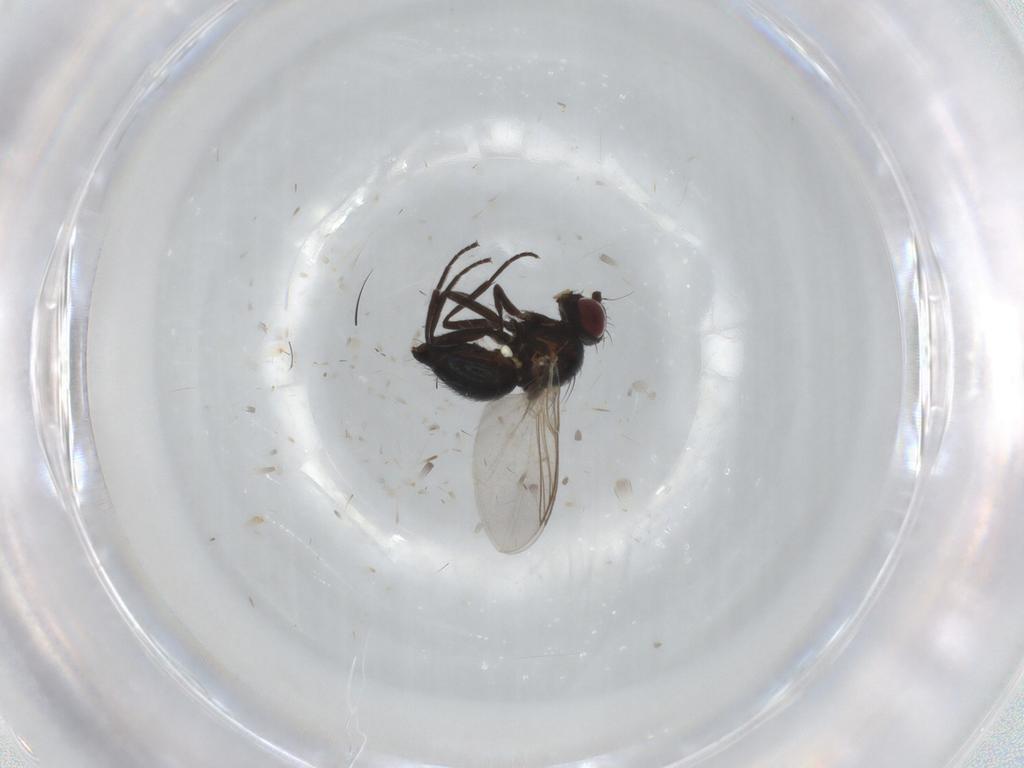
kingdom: Animalia
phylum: Arthropoda
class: Insecta
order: Diptera
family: Agromyzidae
